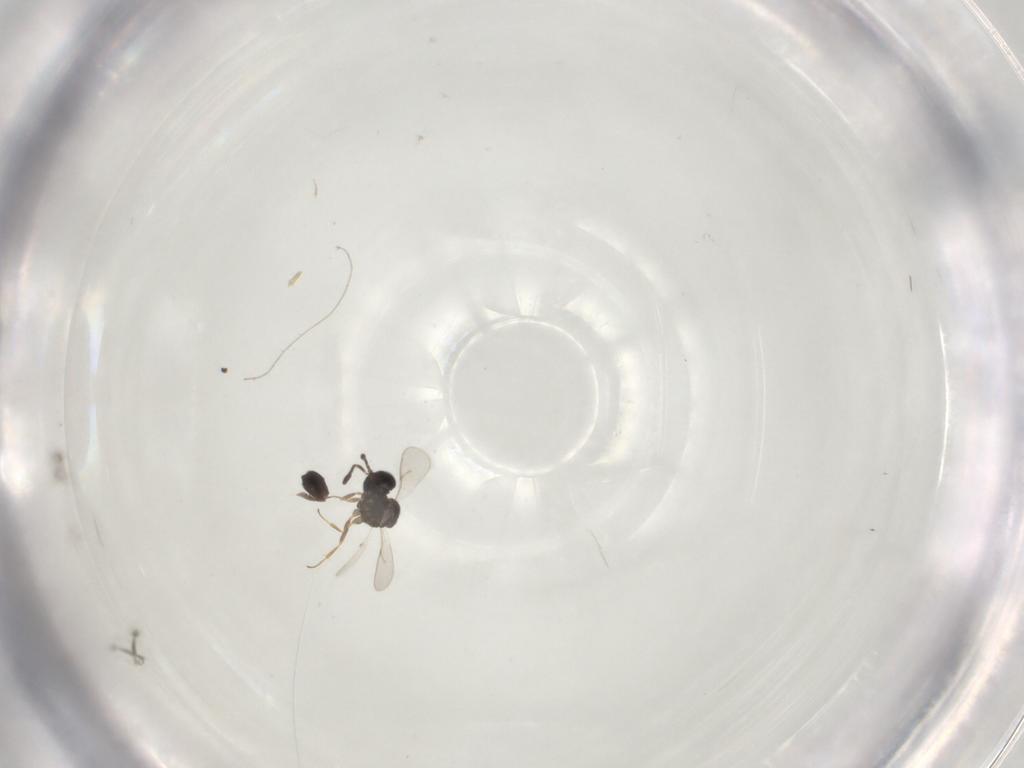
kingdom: Animalia
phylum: Arthropoda
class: Insecta
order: Hymenoptera
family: Scelionidae
